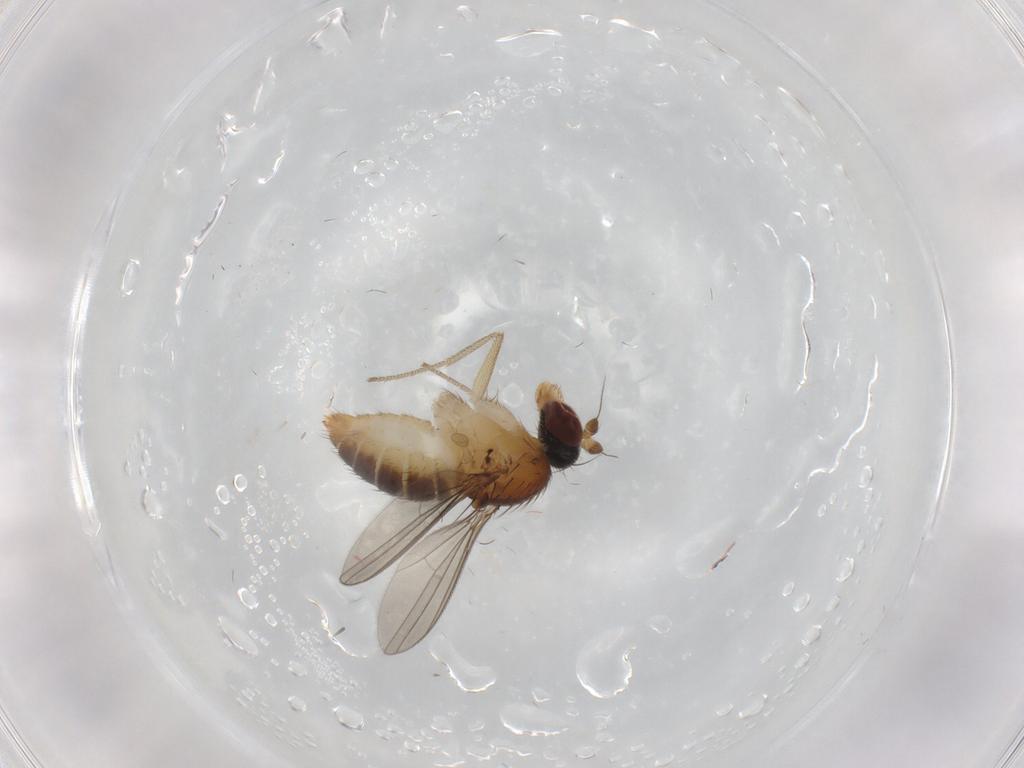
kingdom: Animalia
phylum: Arthropoda
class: Insecta
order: Diptera
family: Dolichopodidae
